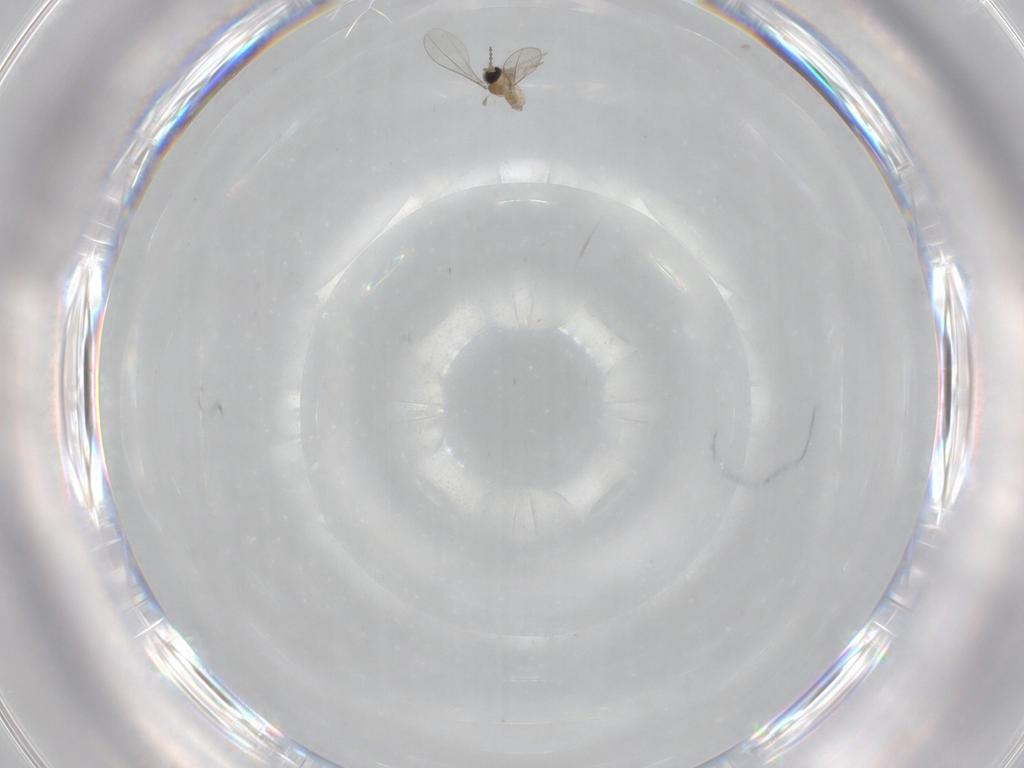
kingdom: Animalia
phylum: Arthropoda
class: Insecta
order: Diptera
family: Cecidomyiidae
